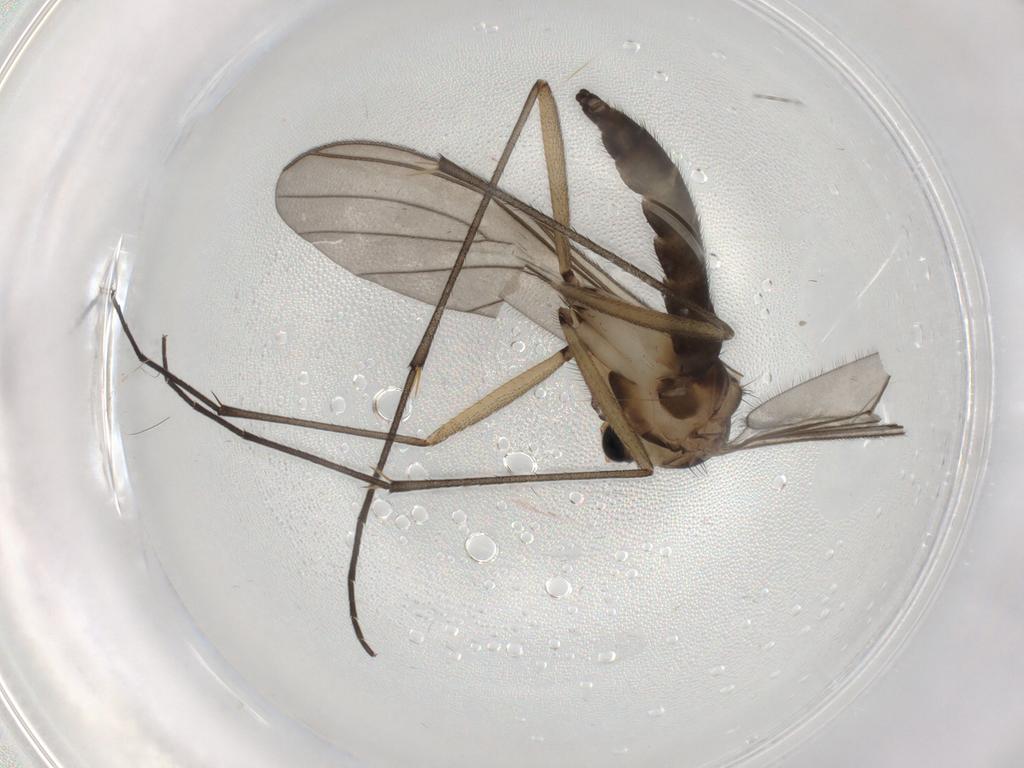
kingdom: Animalia
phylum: Arthropoda
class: Insecta
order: Diptera
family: Sciaridae
